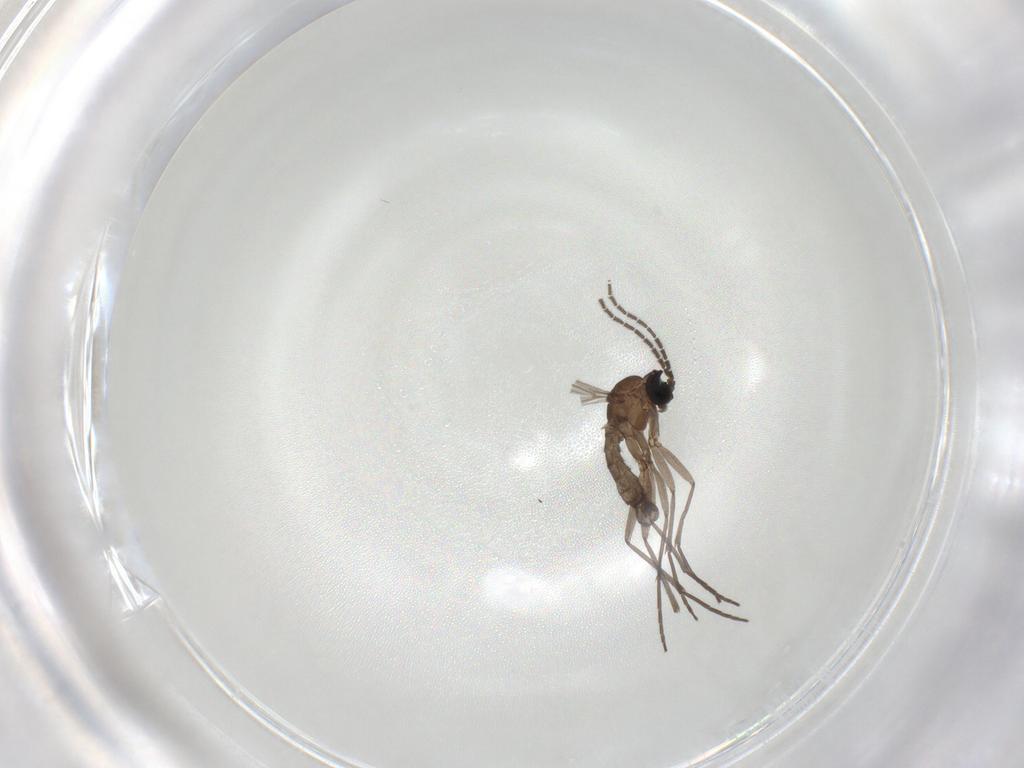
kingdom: Animalia
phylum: Arthropoda
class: Insecta
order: Diptera
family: Sciaridae
